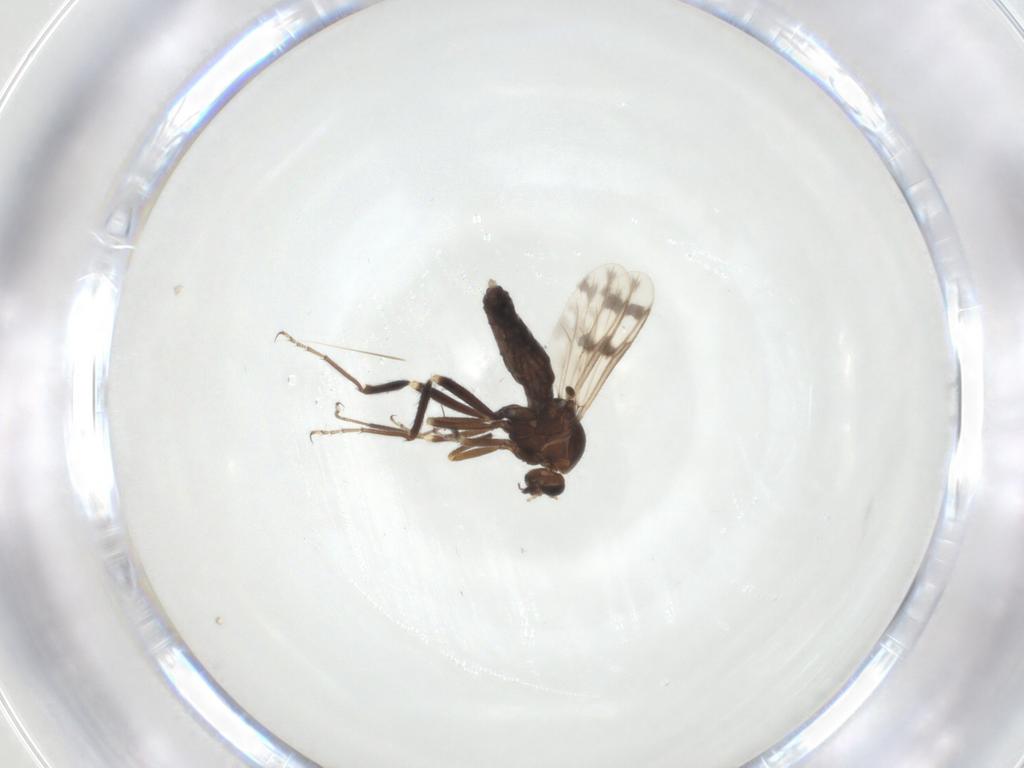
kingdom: Animalia
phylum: Arthropoda
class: Insecta
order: Diptera
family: Ceratopogonidae
